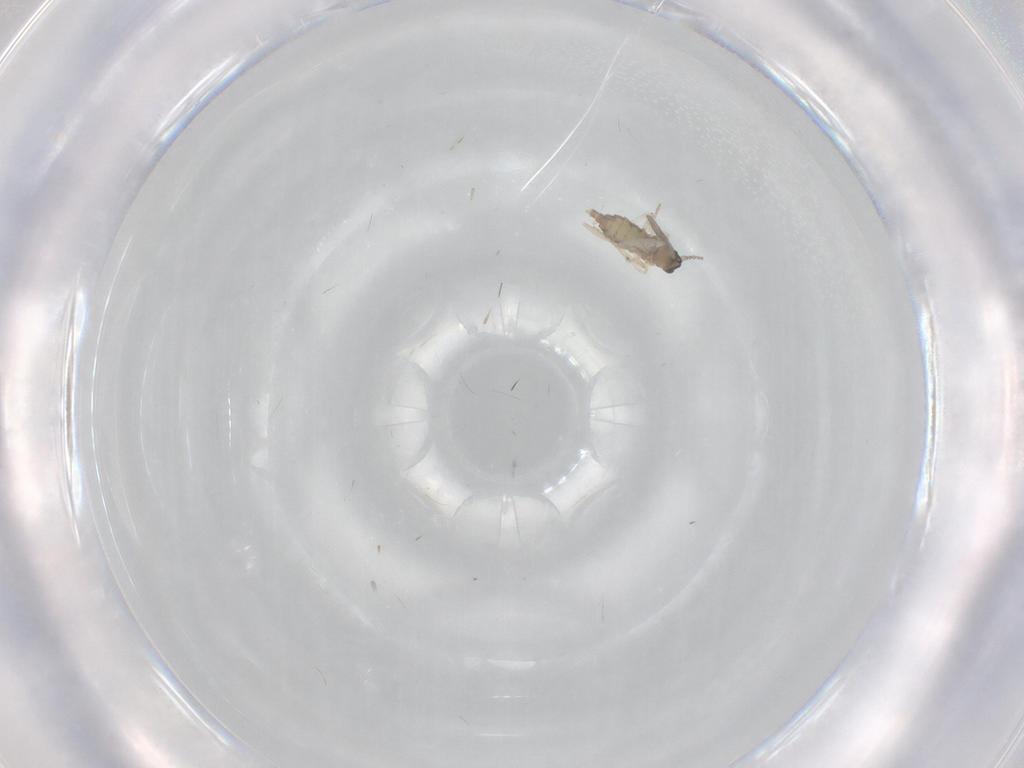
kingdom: Animalia
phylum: Arthropoda
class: Insecta
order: Diptera
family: Cecidomyiidae
